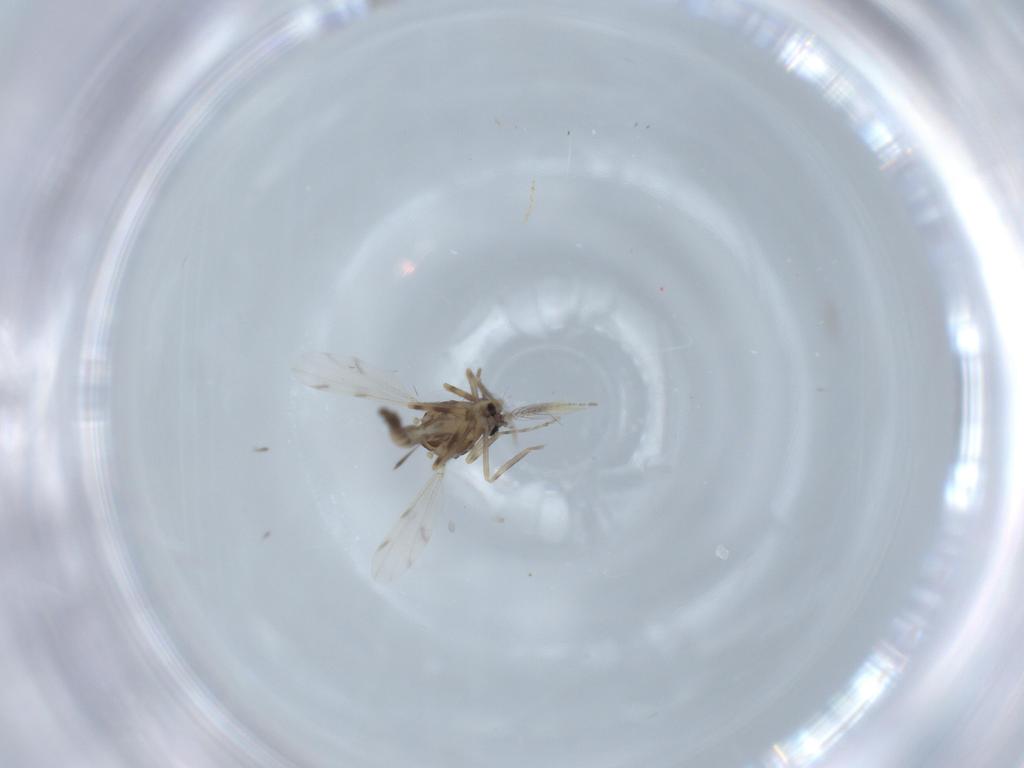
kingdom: Animalia
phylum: Arthropoda
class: Insecta
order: Diptera
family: Ceratopogonidae
